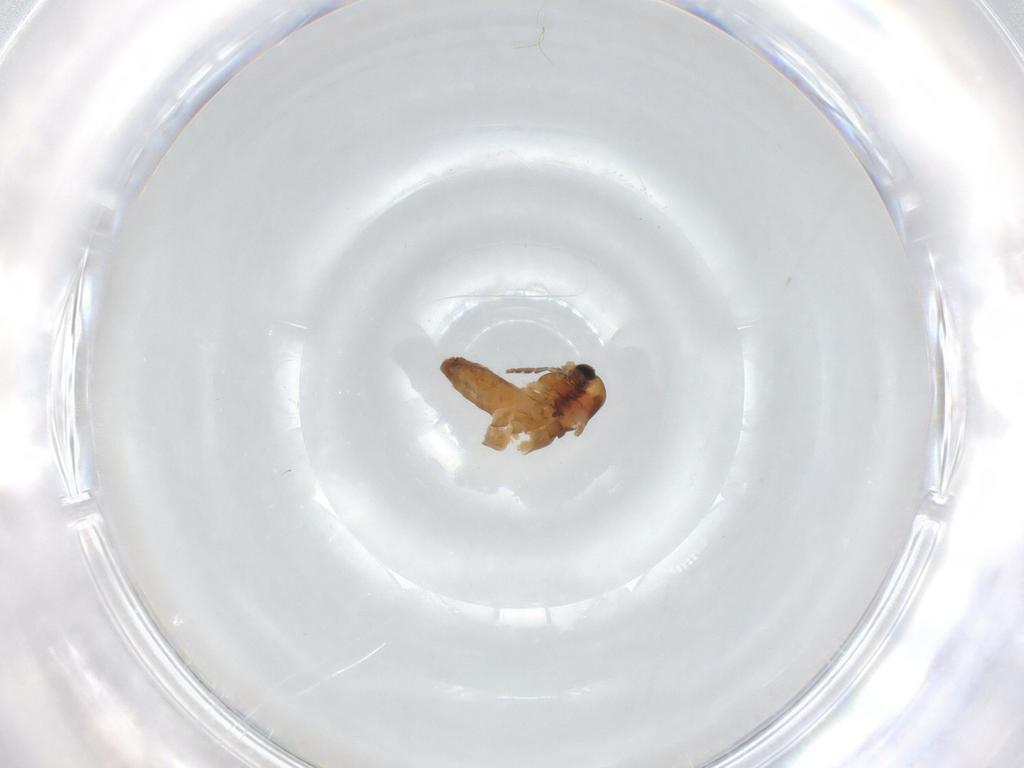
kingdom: Animalia
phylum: Arthropoda
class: Insecta
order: Diptera
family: Chironomidae
